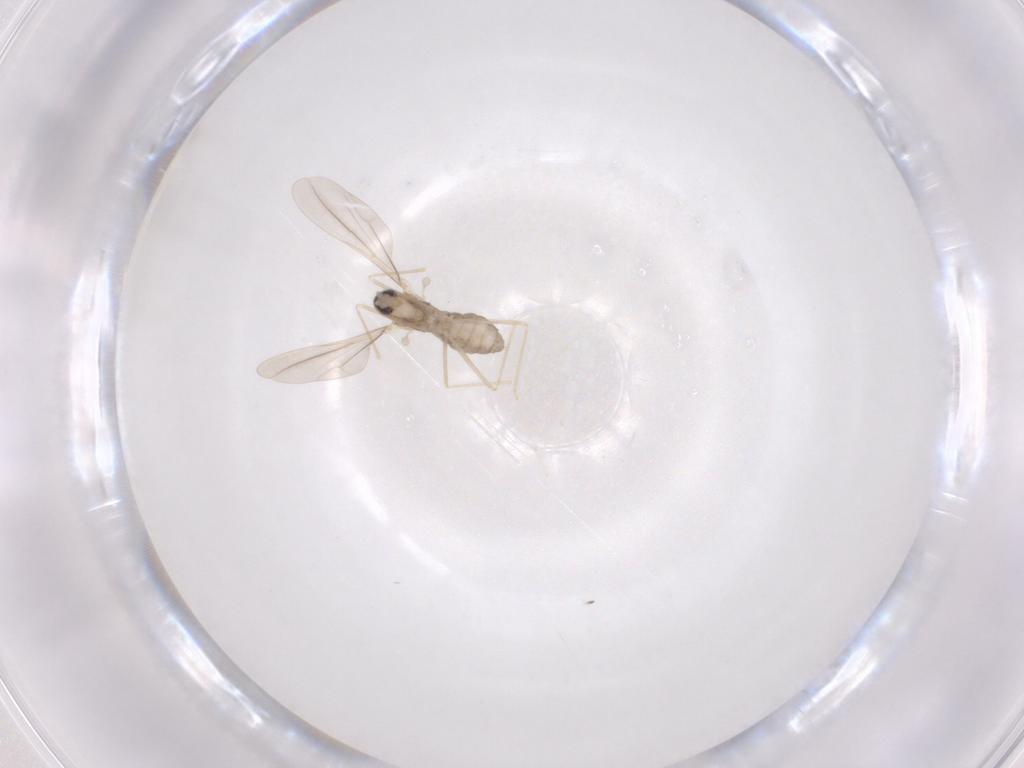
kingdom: Animalia
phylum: Arthropoda
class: Insecta
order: Diptera
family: Cecidomyiidae
